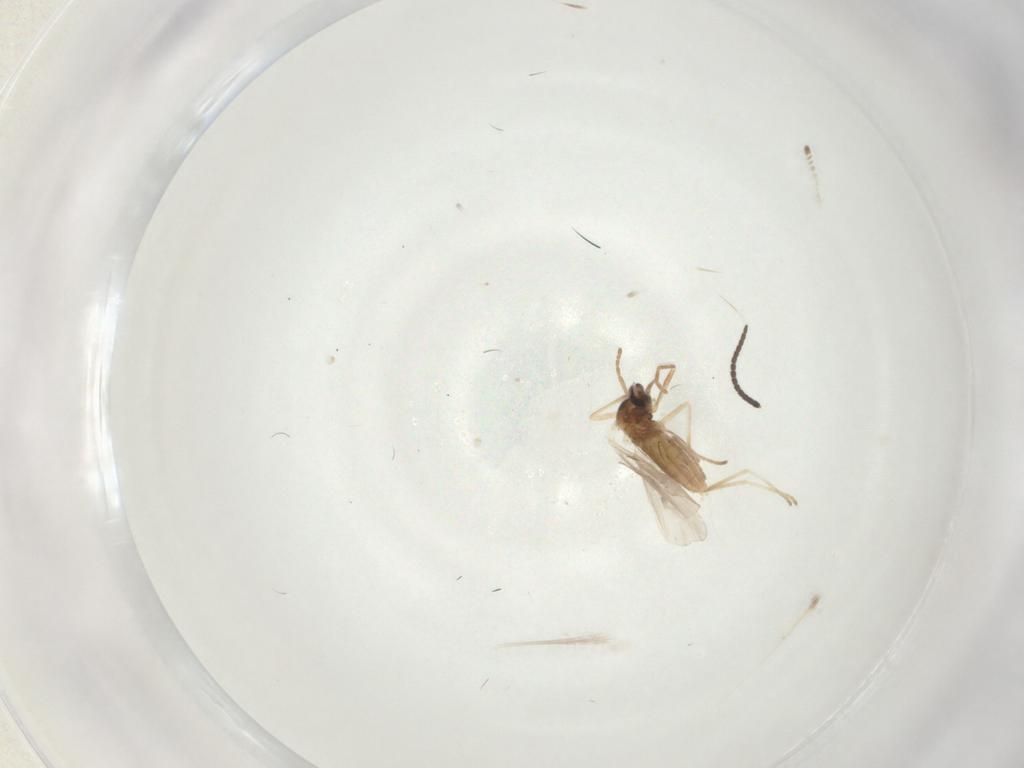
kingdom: Animalia
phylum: Arthropoda
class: Insecta
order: Diptera
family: Cecidomyiidae
